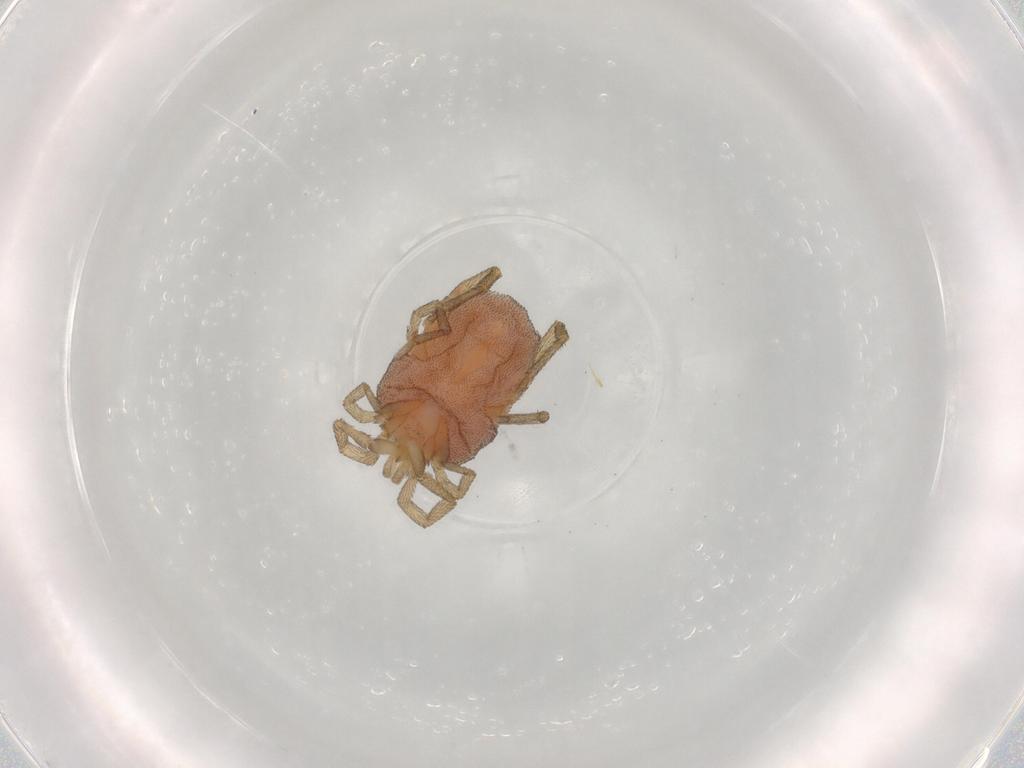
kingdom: Animalia
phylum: Arthropoda
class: Arachnida
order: Trombidiformes
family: Erythraeidae
